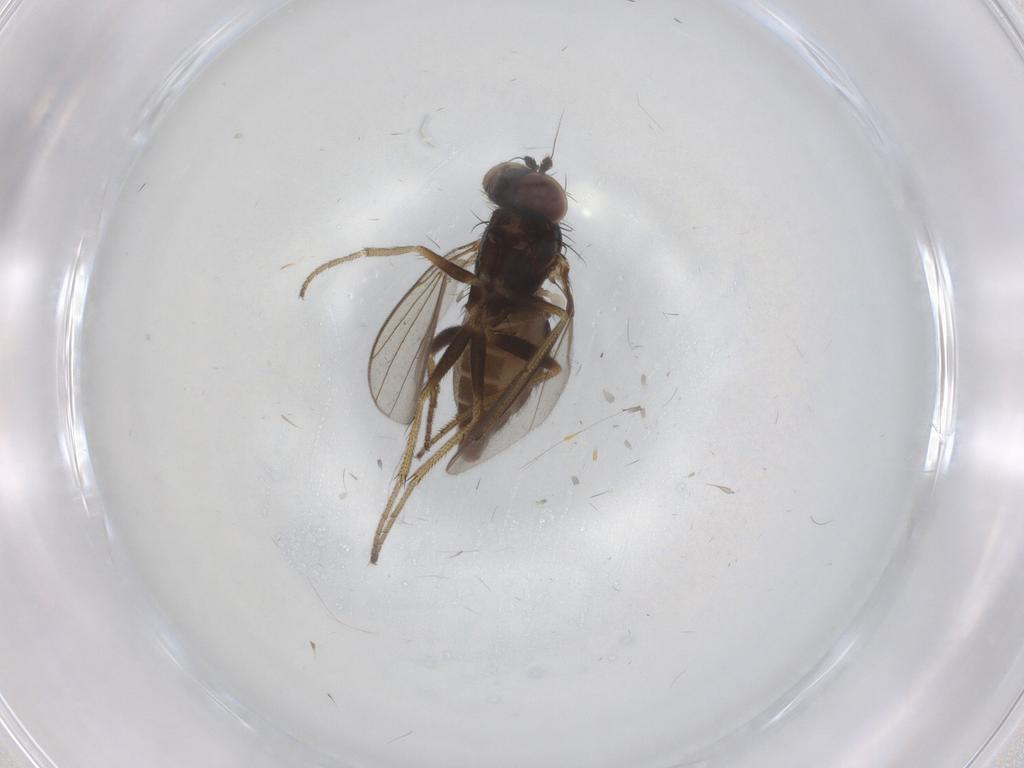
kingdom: Animalia
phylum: Arthropoda
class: Insecta
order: Diptera
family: Dolichopodidae
